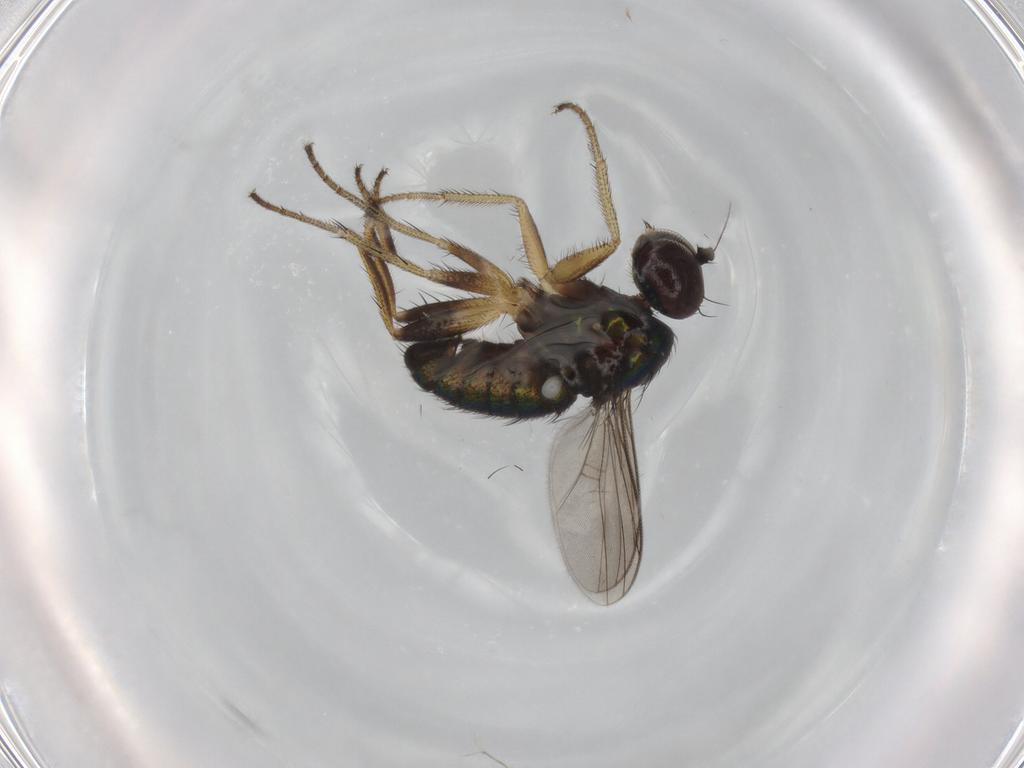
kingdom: Animalia
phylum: Arthropoda
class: Insecta
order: Diptera
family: Dolichopodidae
